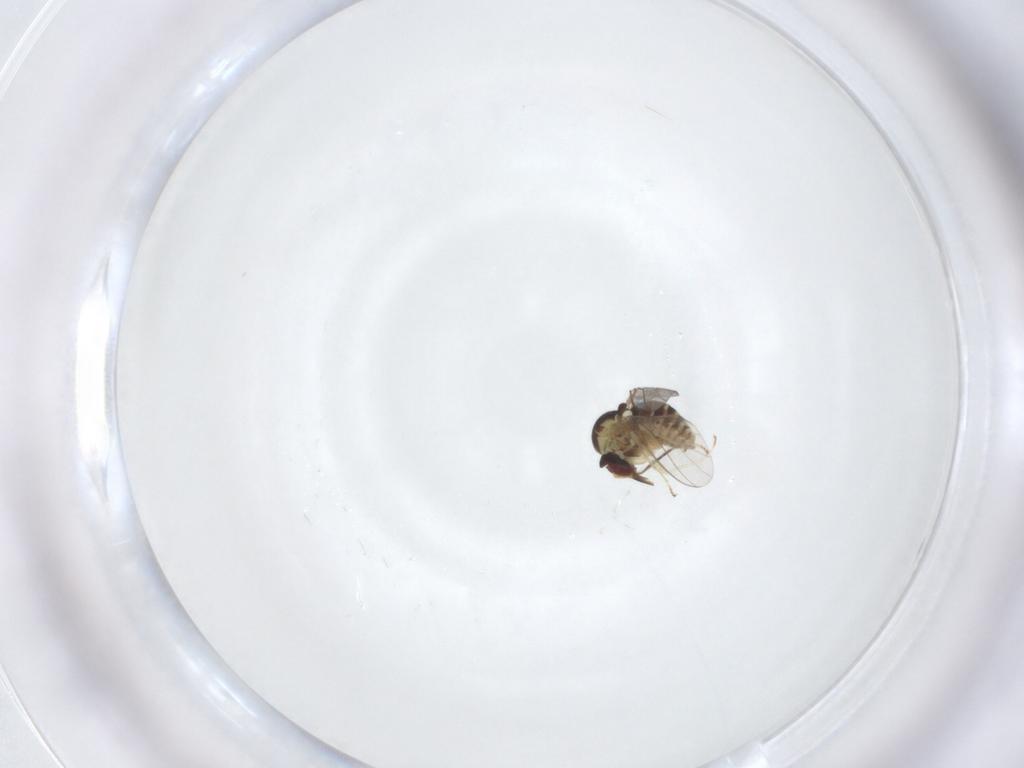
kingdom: Animalia
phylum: Arthropoda
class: Insecta
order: Diptera
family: Mythicomyiidae
